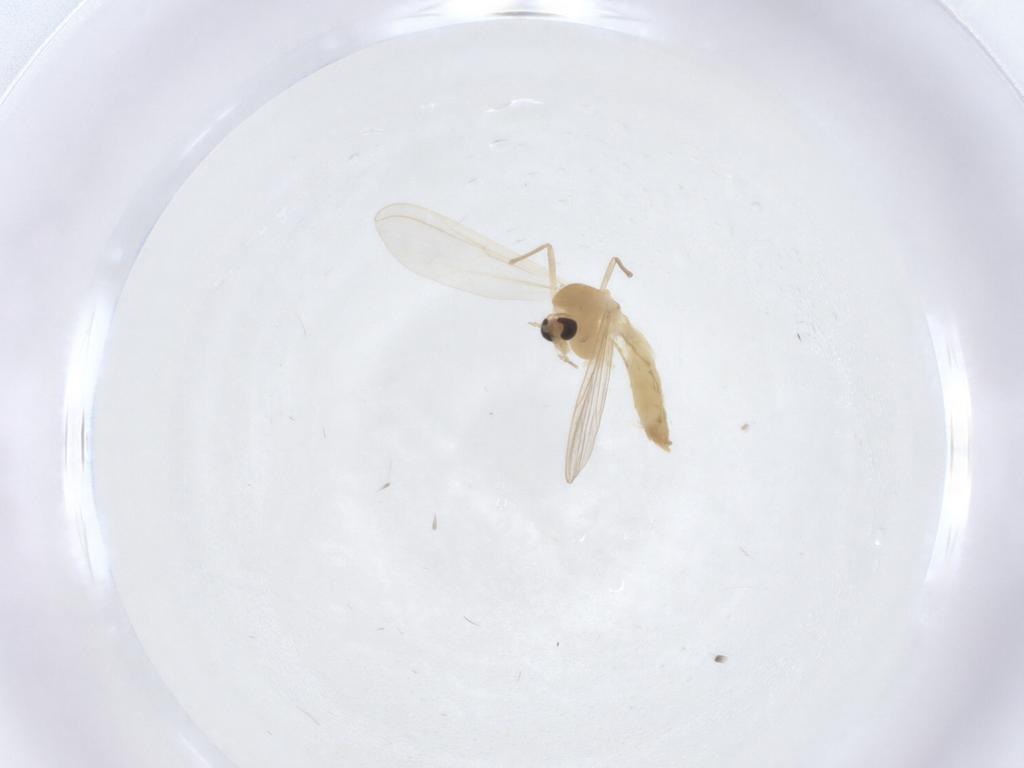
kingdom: Animalia
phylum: Arthropoda
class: Insecta
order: Diptera
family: Chironomidae
